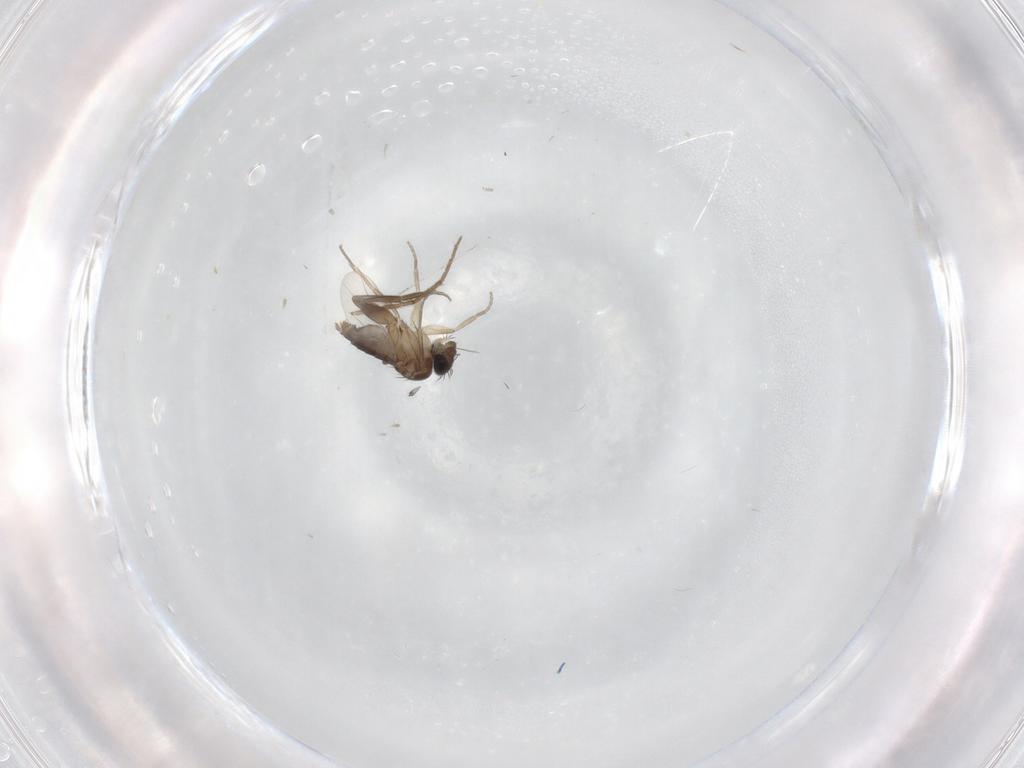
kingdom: Animalia
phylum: Arthropoda
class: Insecta
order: Diptera
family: Phoridae
